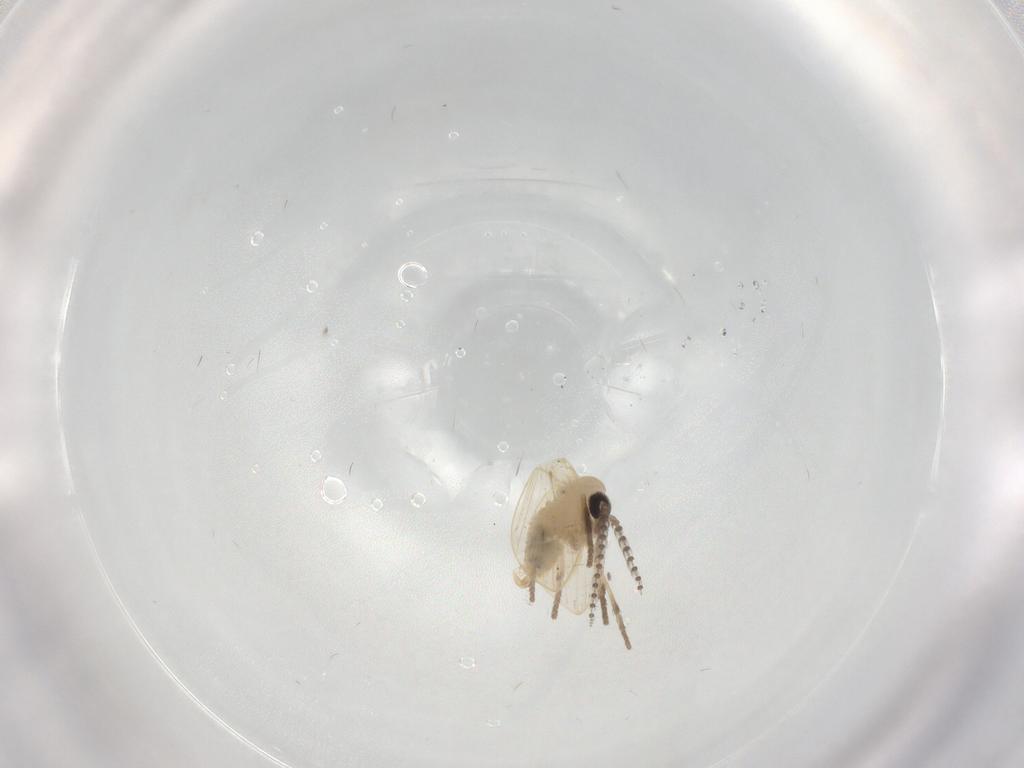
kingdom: Animalia
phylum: Arthropoda
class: Insecta
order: Diptera
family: Psychodidae
